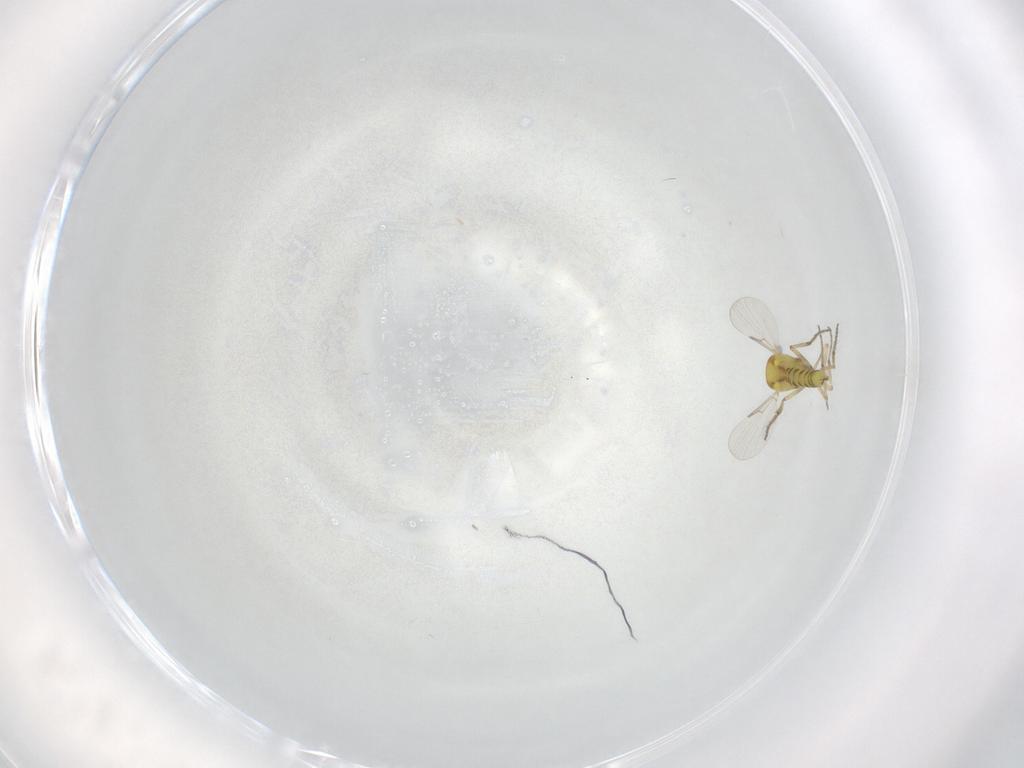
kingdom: Animalia
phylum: Arthropoda
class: Insecta
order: Diptera
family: Ceratopogonidae
